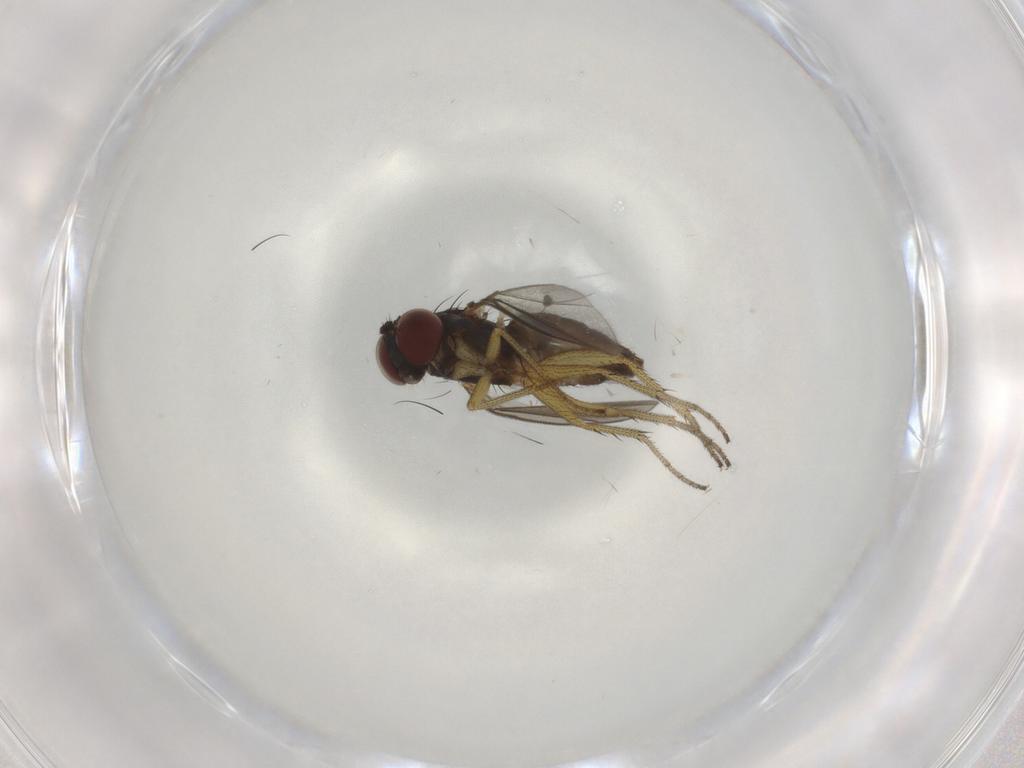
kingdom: Animalia
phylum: Arthropoda
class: Insecta
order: Diptera
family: Dolichopodidae
